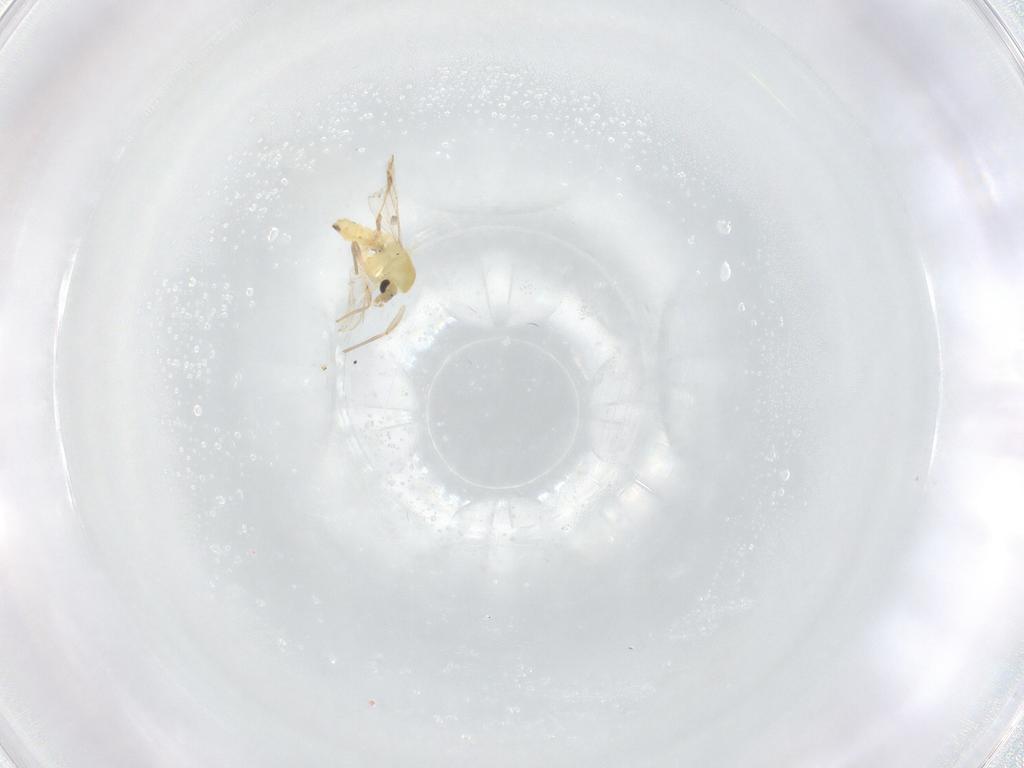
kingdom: Animalia
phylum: Arthropoda
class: Insecta
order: Diptera
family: Chironomidae
